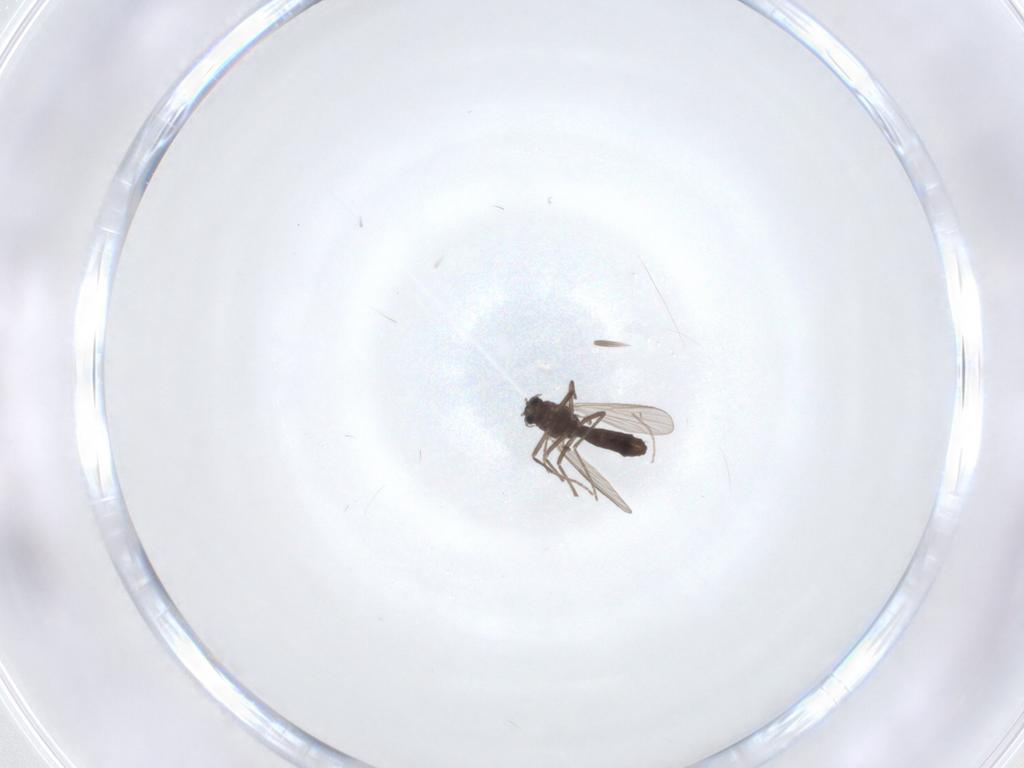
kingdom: Animalia
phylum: Arthropoda
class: Insecta
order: Diptera
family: Chironomidae
